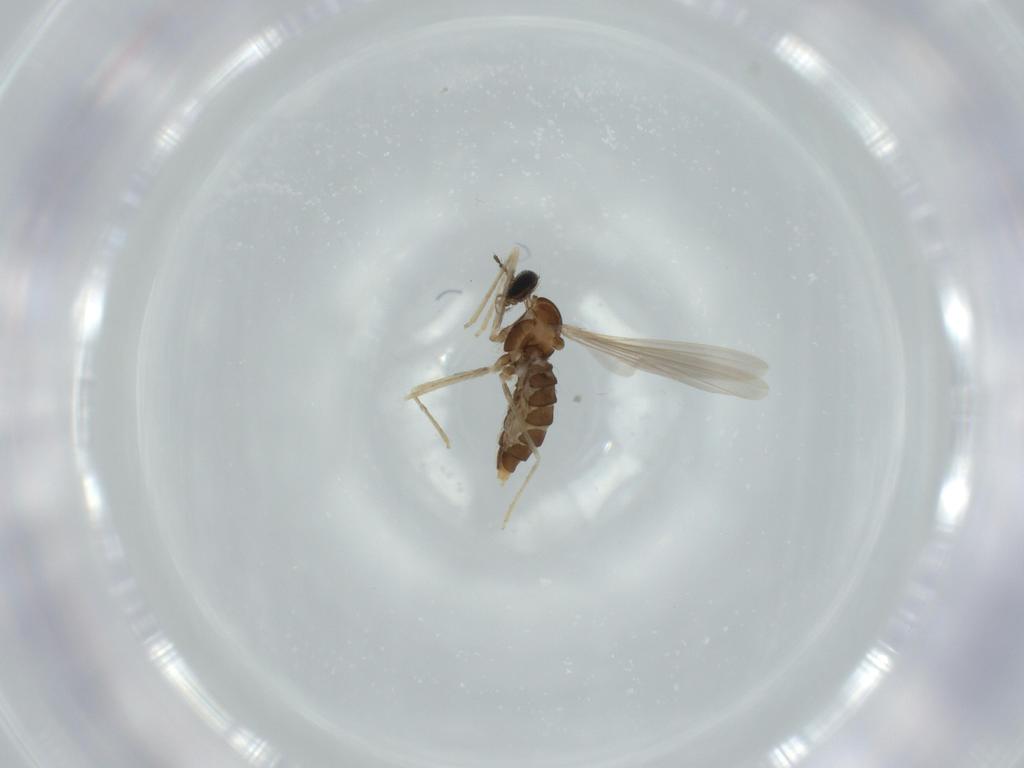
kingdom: Animalia
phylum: Arthropoda
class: Insecta
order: Diptera
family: Cecidomyiidae
